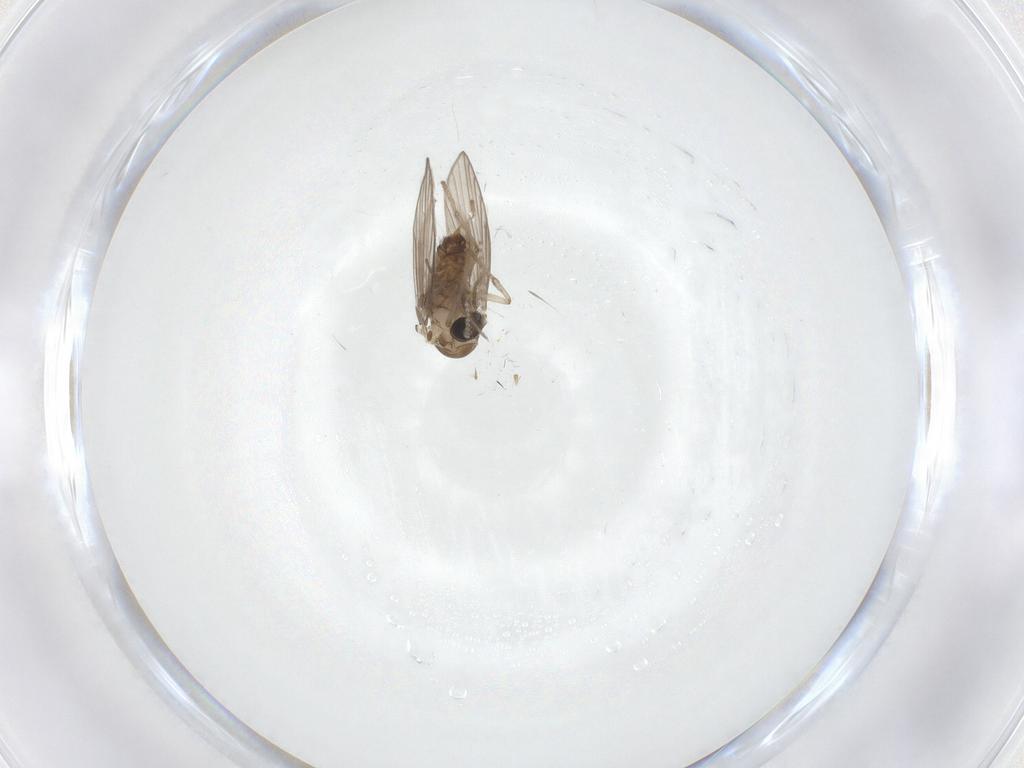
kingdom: Animalia
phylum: Arthropoda
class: Insecta
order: Diptera
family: Psychodidae
